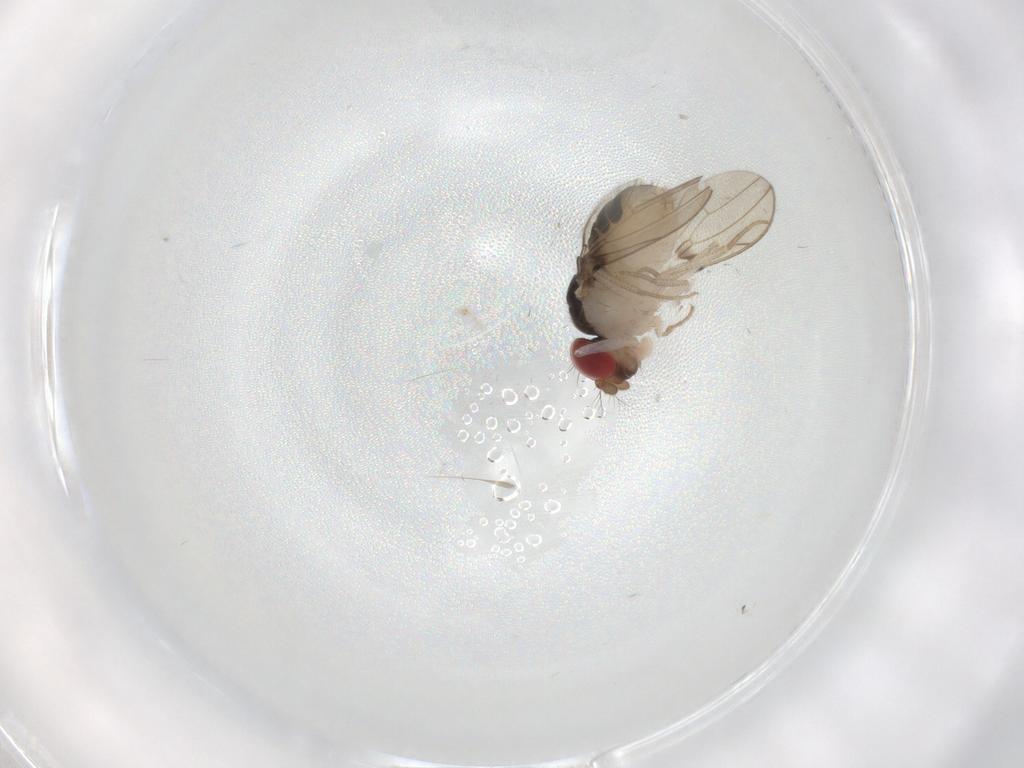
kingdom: Animalia
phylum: Arthropoda
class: Insecta
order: Diptera
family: Drosophilidae
